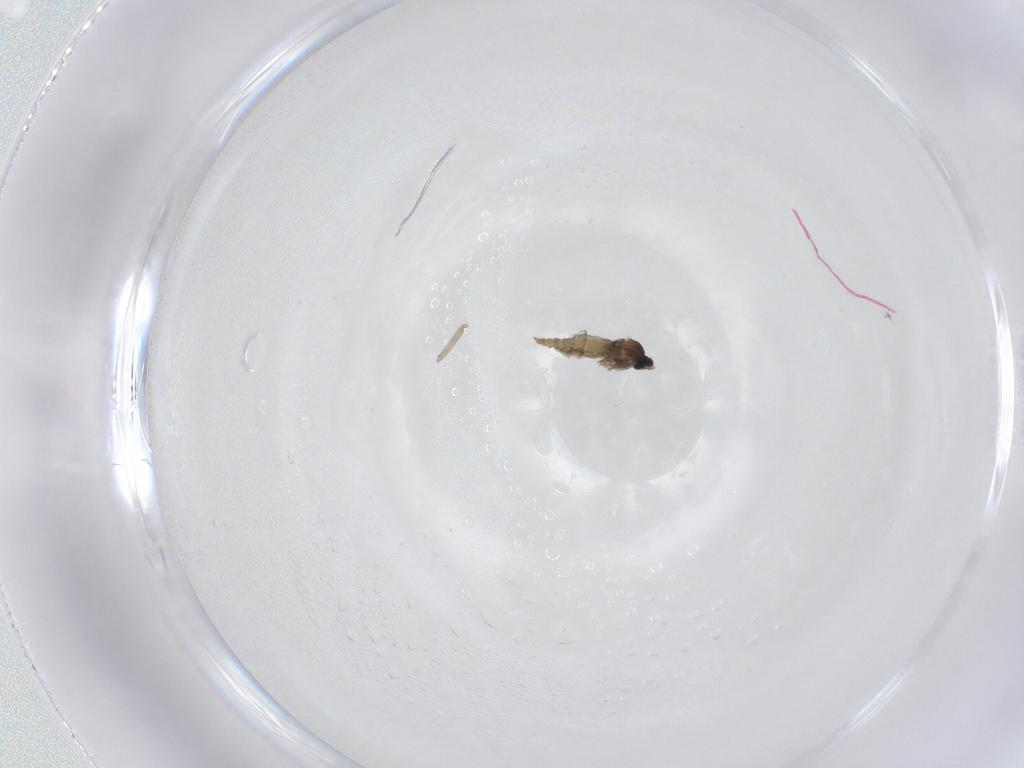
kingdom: Animalia
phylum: Arthropoda
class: Insecta
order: Diptera
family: Cecidomyiidae
